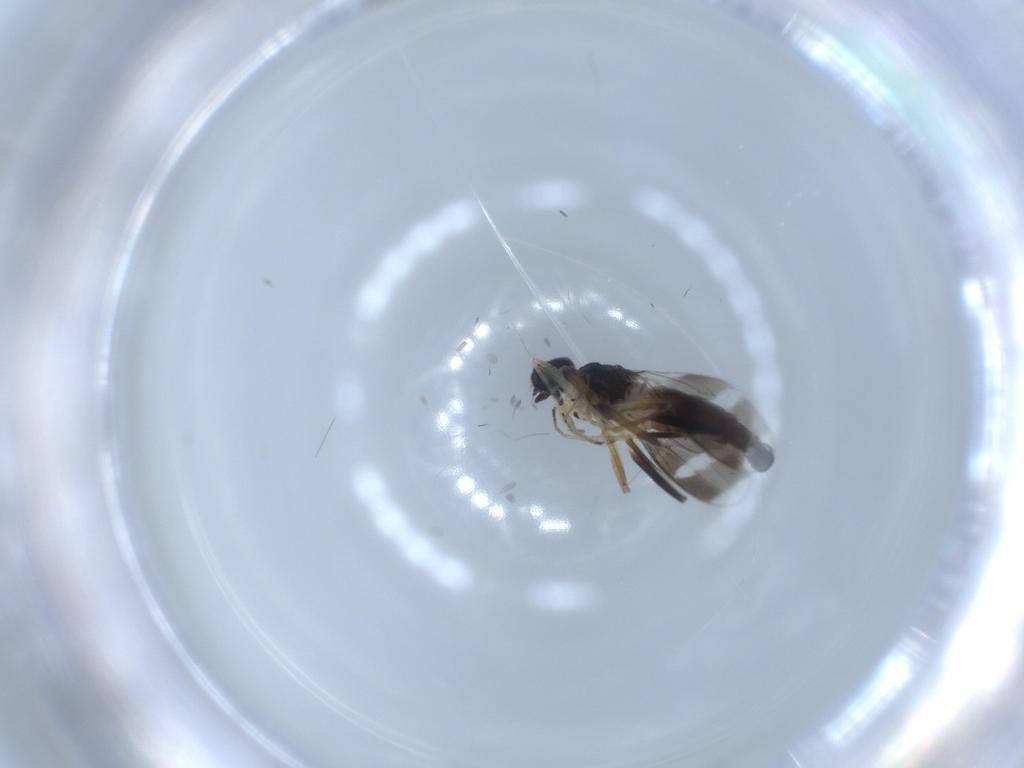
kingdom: Animalia
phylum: Arthropoda
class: Insecta
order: Diptera
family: Hybotidae
